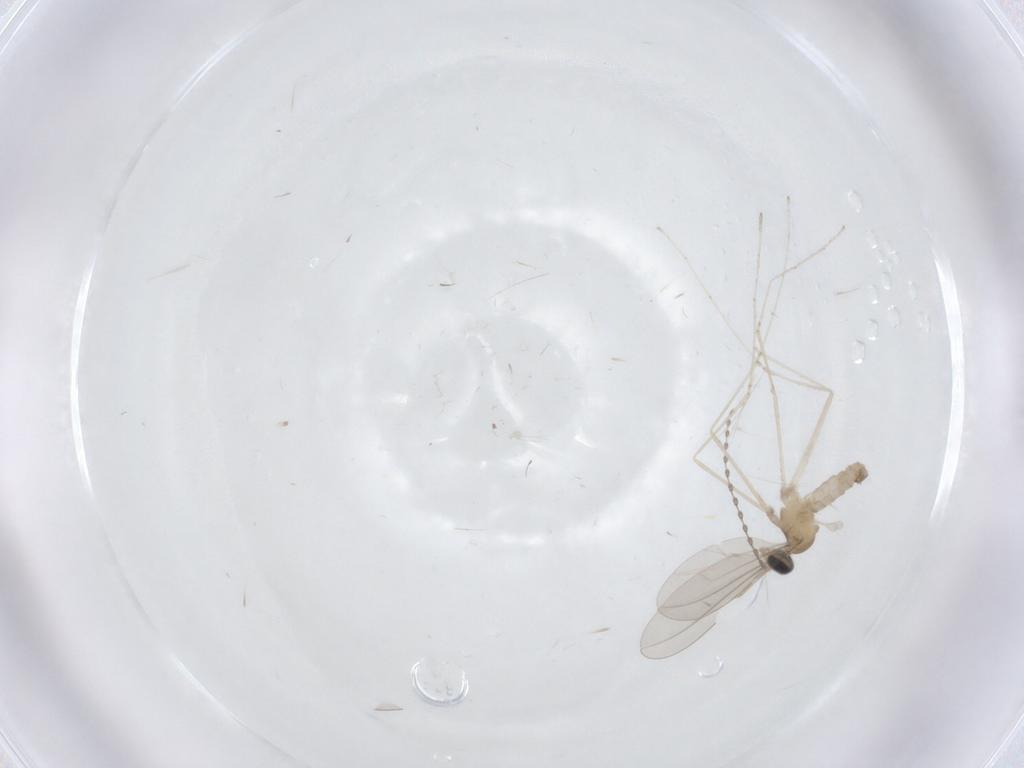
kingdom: Animalia
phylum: Arthropoda
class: Insecta
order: Diptera
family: Cecidomyiidae
